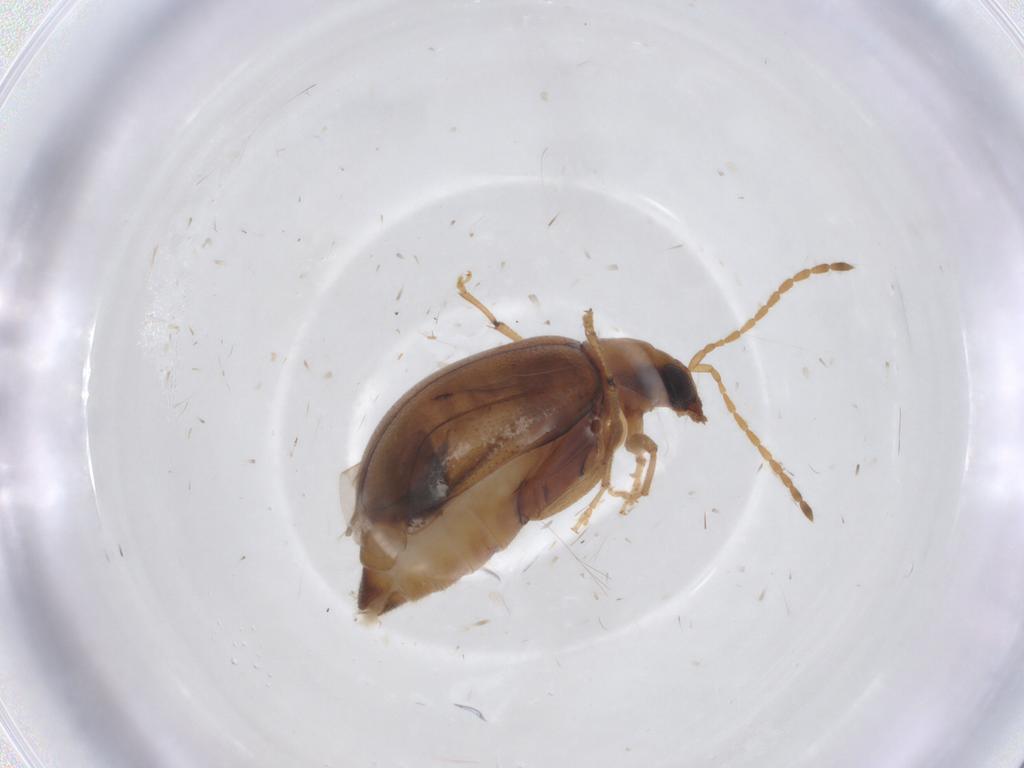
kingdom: Animalia
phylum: Arthropoda
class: Insecta
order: Coleoptera
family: Chrysomelidae
